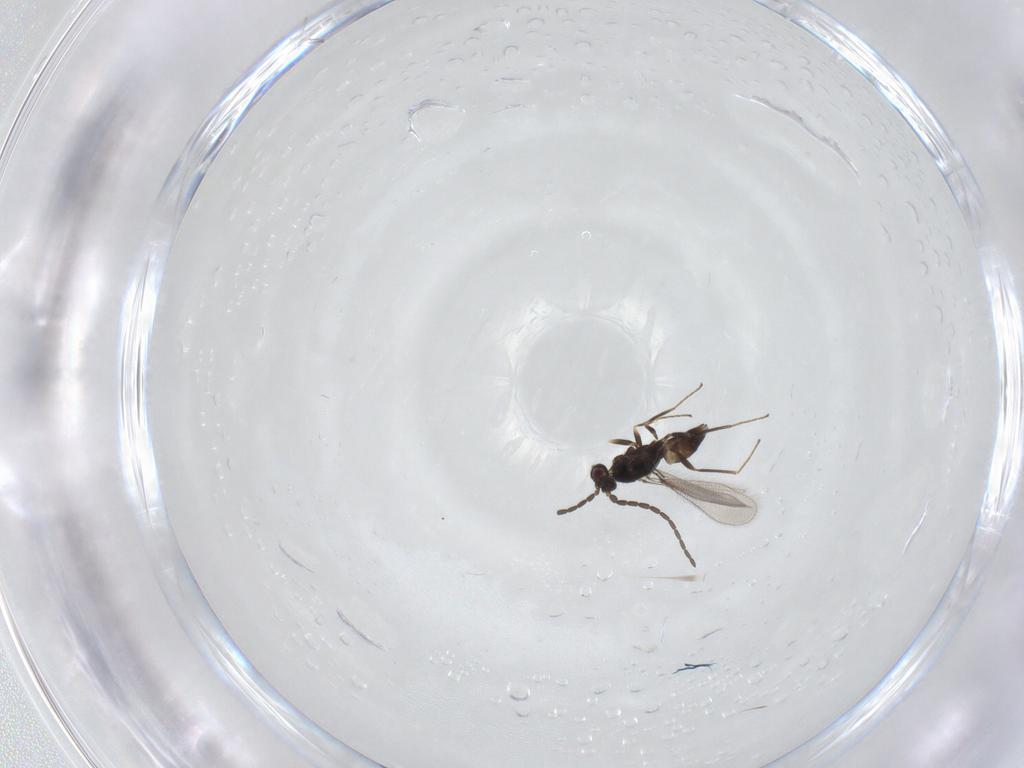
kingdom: Animalia
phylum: Arthropoda
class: Insecta
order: Hymenoptera
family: Mymaridae
